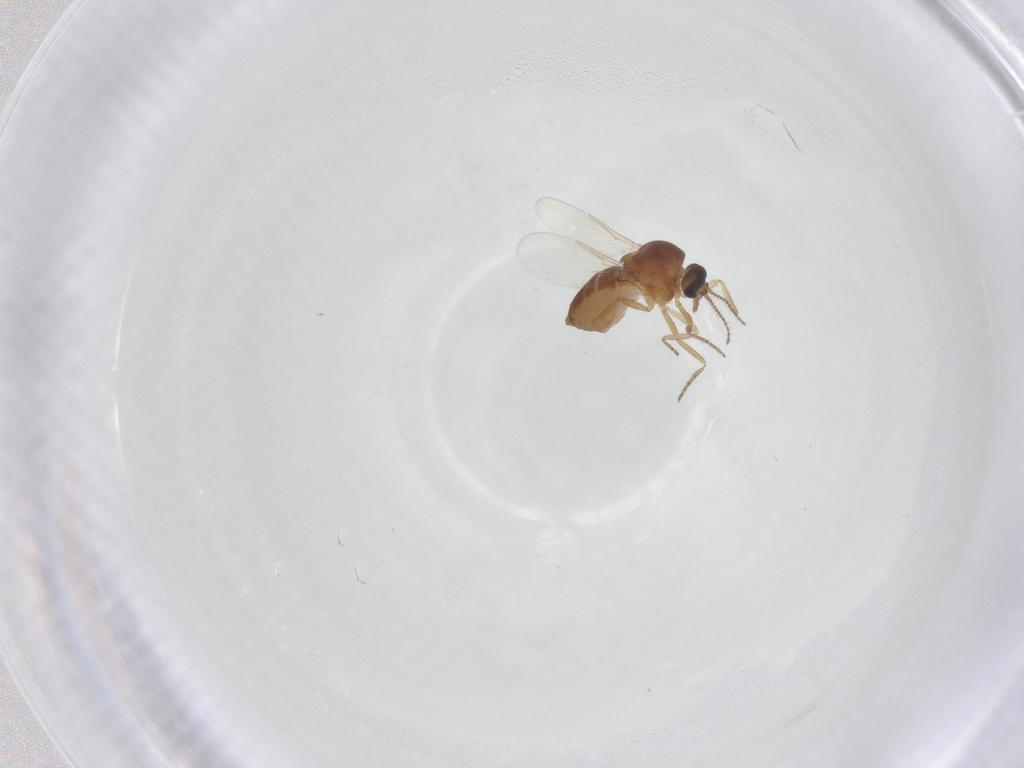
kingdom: Animalia
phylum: Arthropoda
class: Insecta
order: Diptera
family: Ceratopogonidae
